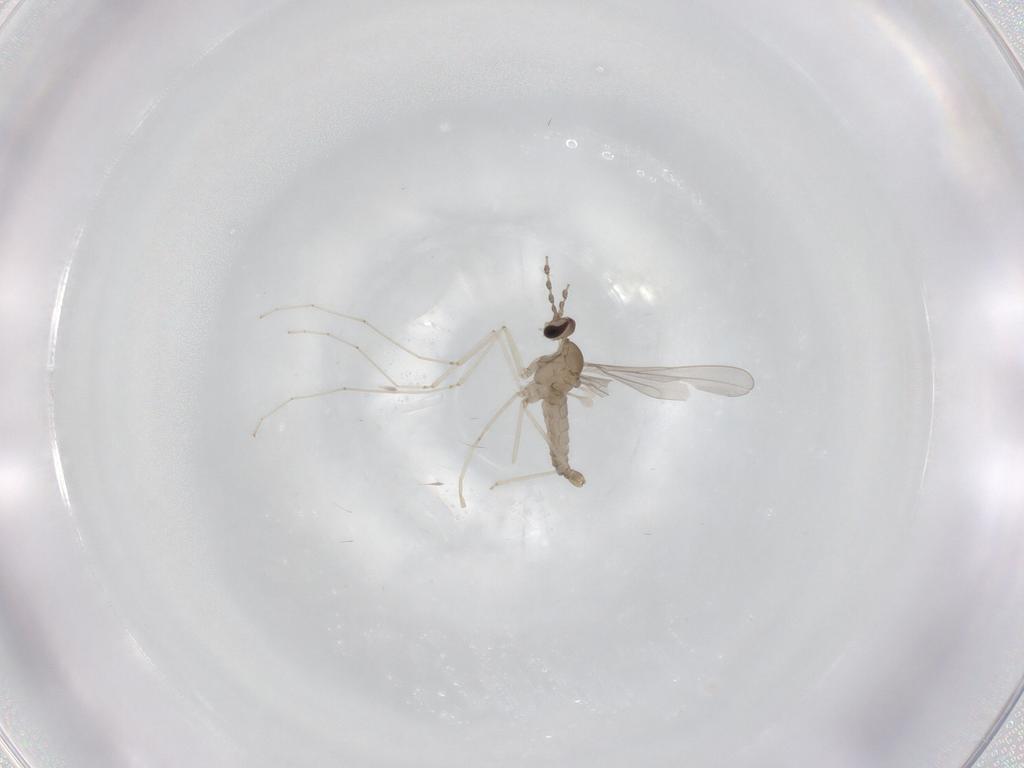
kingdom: Animalia
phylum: Arthropoda
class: Insecta
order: Diptera
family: Cecidomyiidae
